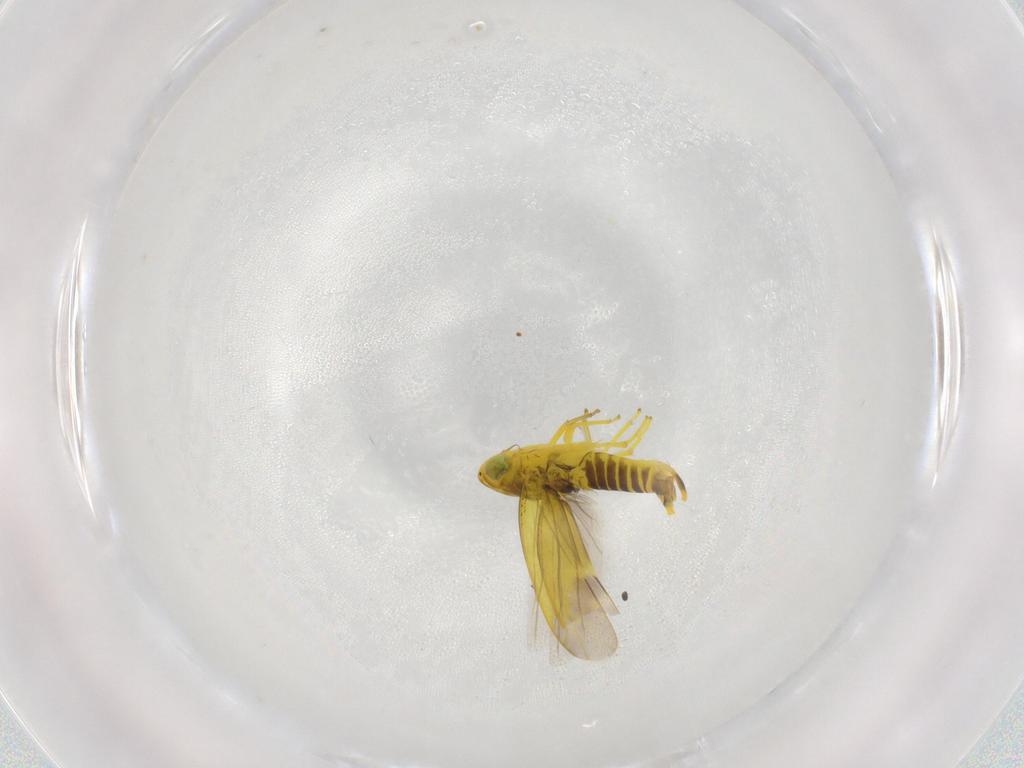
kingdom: Animalia
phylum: Arthropoda
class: Insecta
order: Hemiptera
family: Cicadellidae
